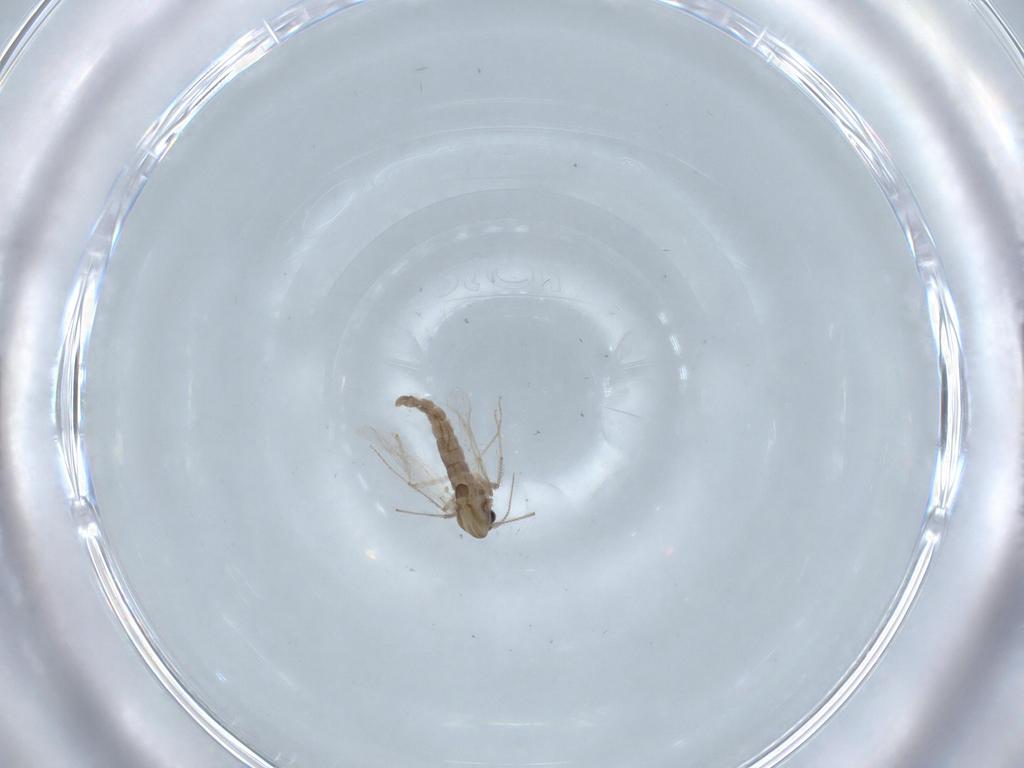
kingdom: Animalia
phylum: Arthropoda
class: Insecta
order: Diptera
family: Chironomidae
